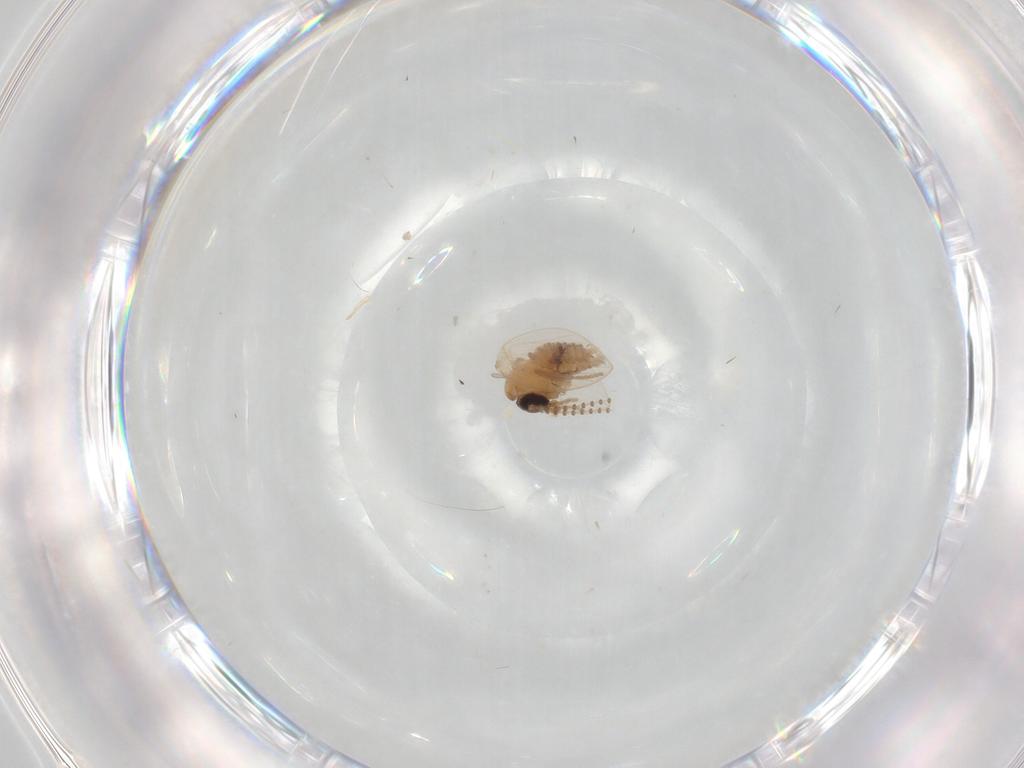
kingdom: Animalia
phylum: Arthropoda
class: Insecta
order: Diptera
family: Psychodidae
